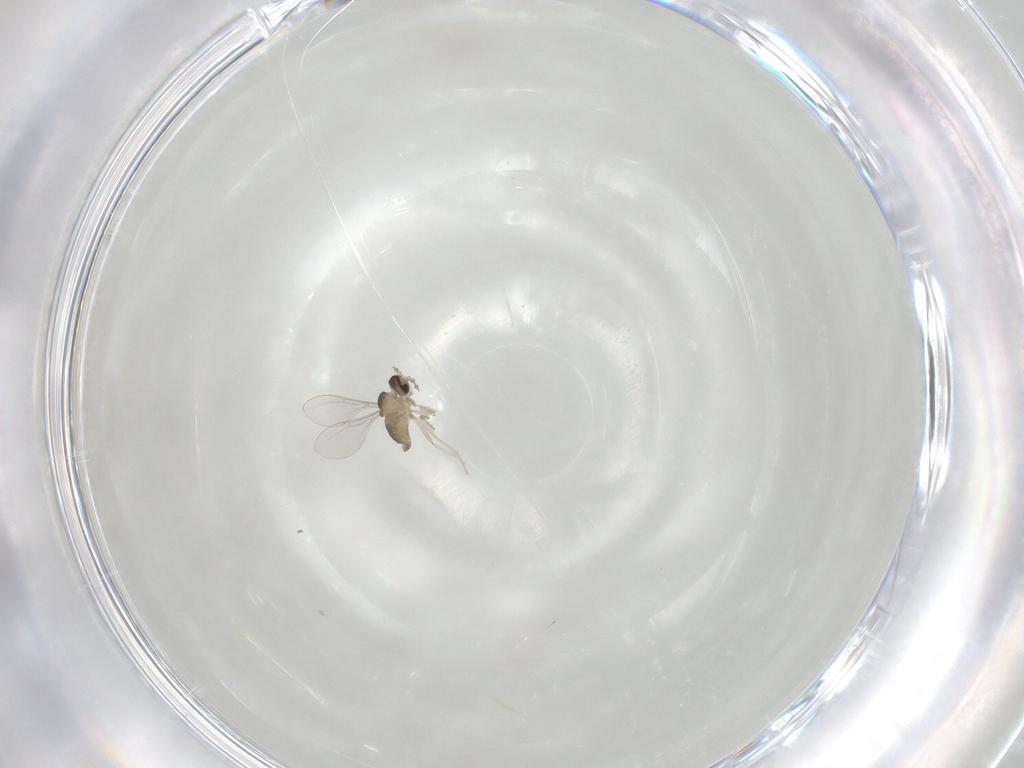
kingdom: Animalia
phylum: Arthropoda
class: Insecta
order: Diptera
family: Cecidomyiidae
